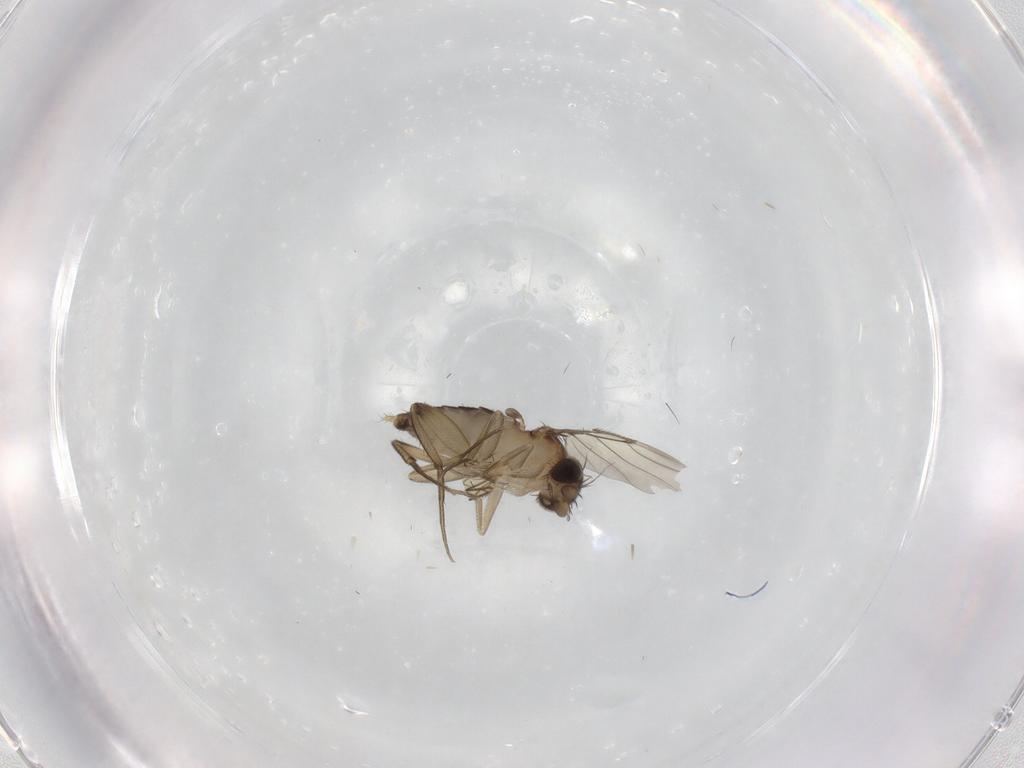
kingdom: Animalia
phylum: Arthropoda
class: Insecta
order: Diptera
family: Phoridae
